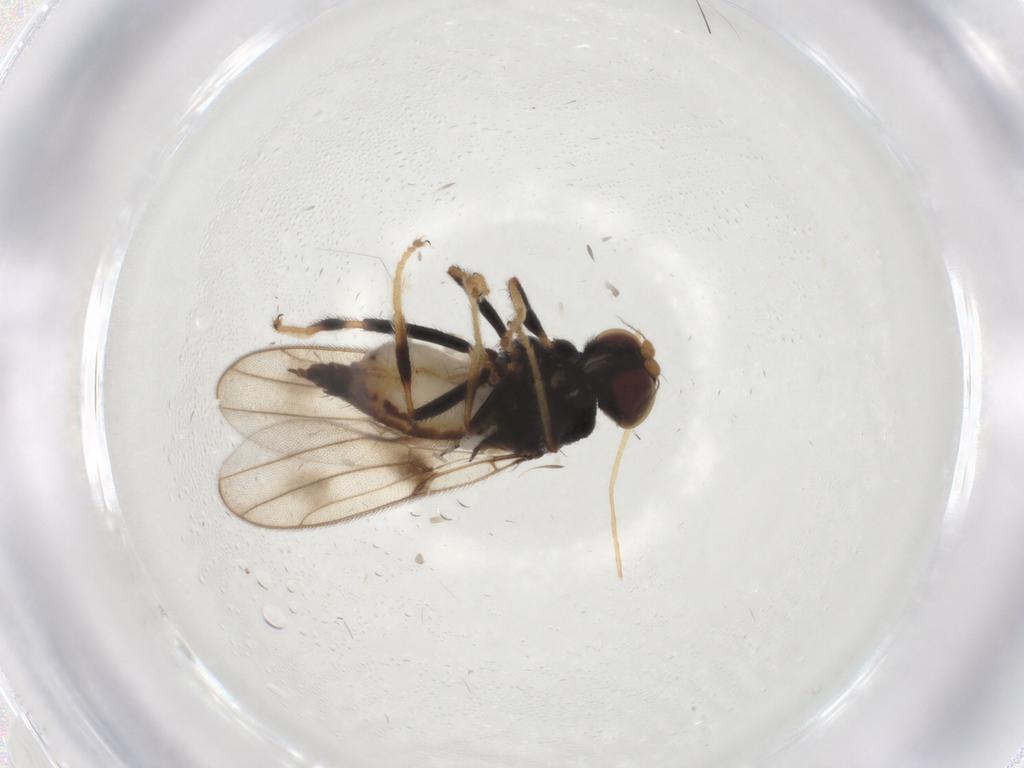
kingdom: Animalia
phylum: Arthropoda
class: Insecta
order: Diptera
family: Chloropidae
